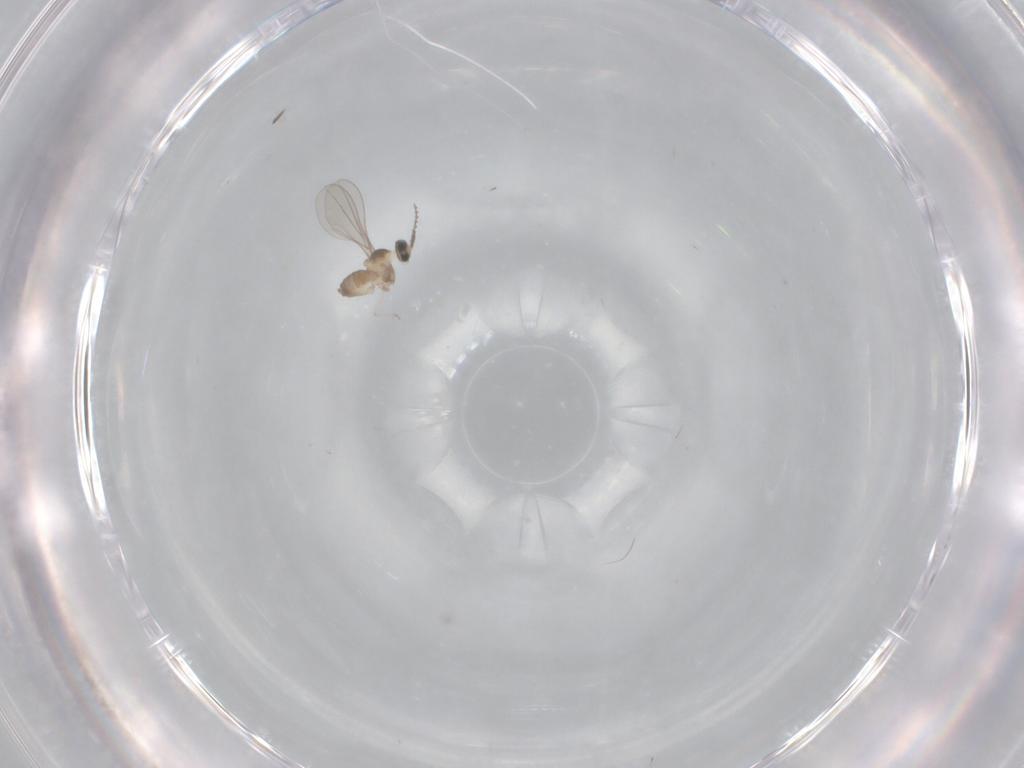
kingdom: Animalia
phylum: Arthropoda
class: Insecta
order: Diptera
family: Cecidomyiidae
